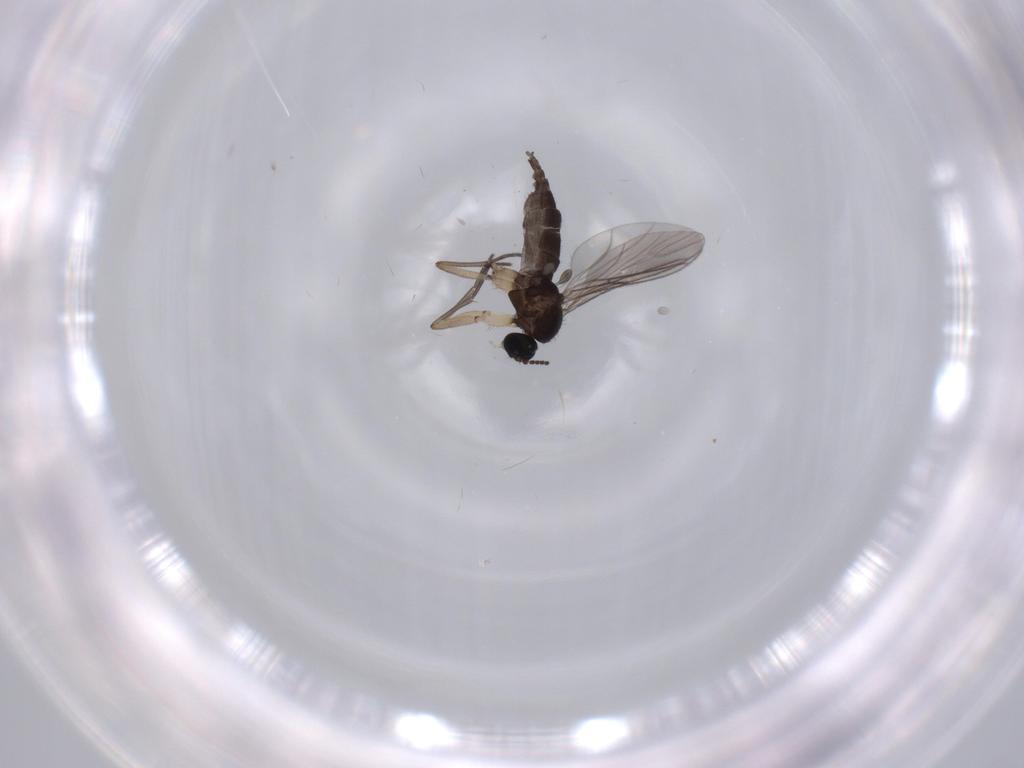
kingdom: Animalia
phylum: Arthropoda
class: Insecta
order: Diptera
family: Sciaridae
